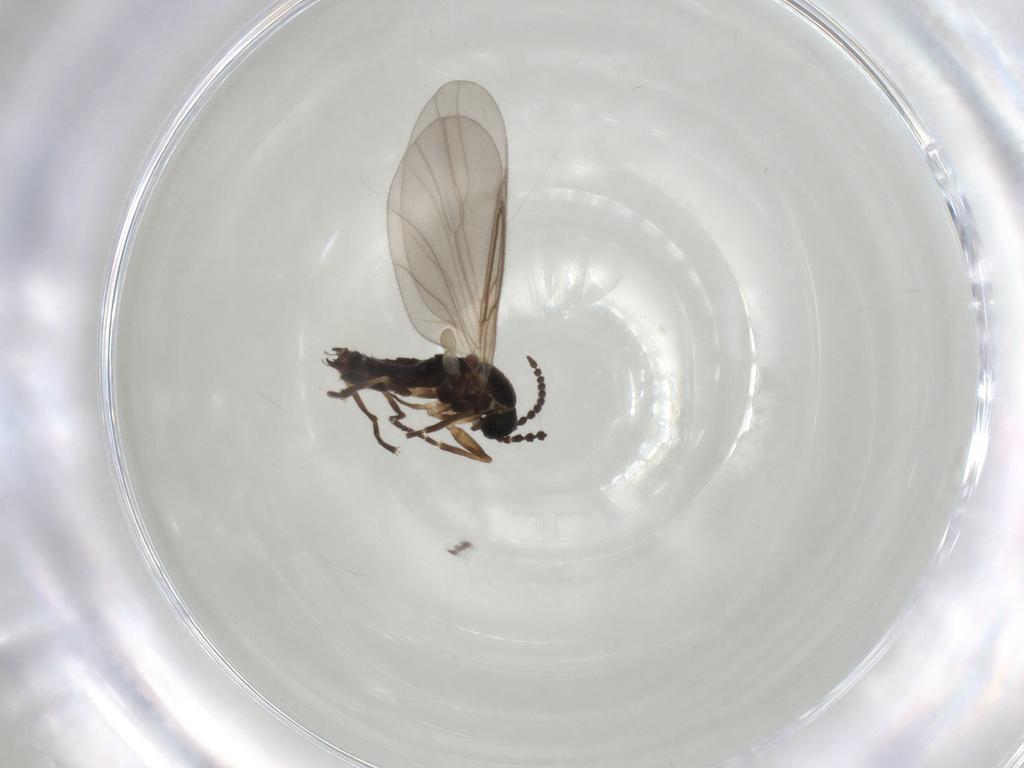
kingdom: Animalia
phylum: Arthropoda
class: Insecta
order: Diptera
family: Scatopsidae
